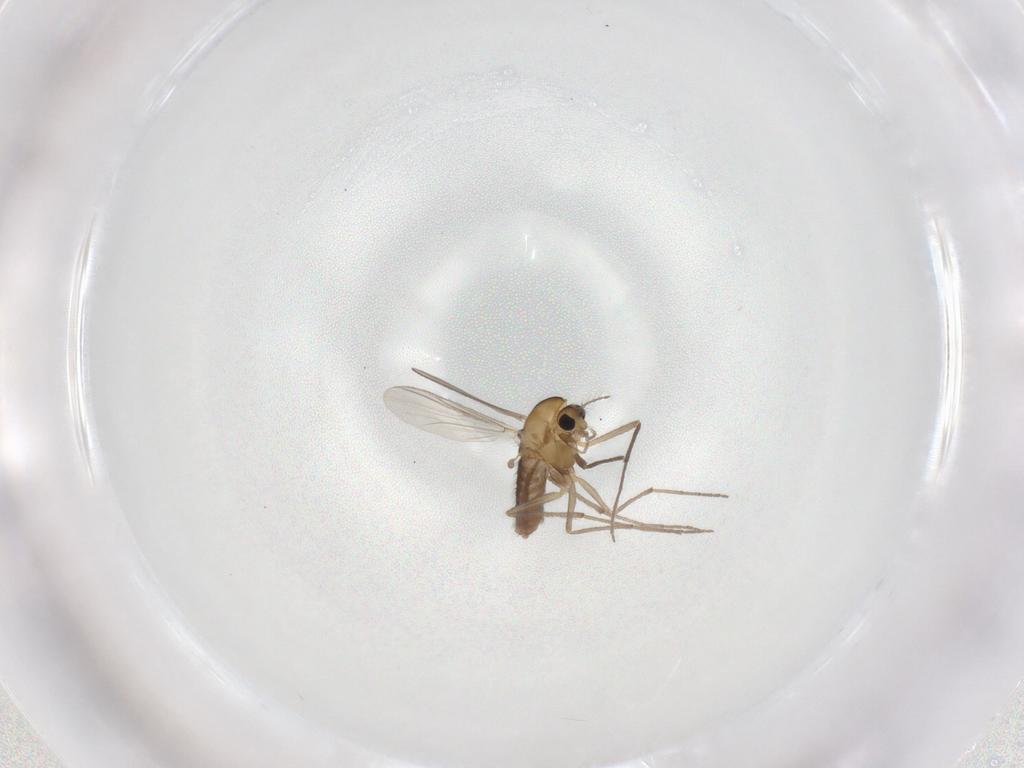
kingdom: Animalia
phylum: Arthropoda
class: Insecta
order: Diptera
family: Chironomidae
